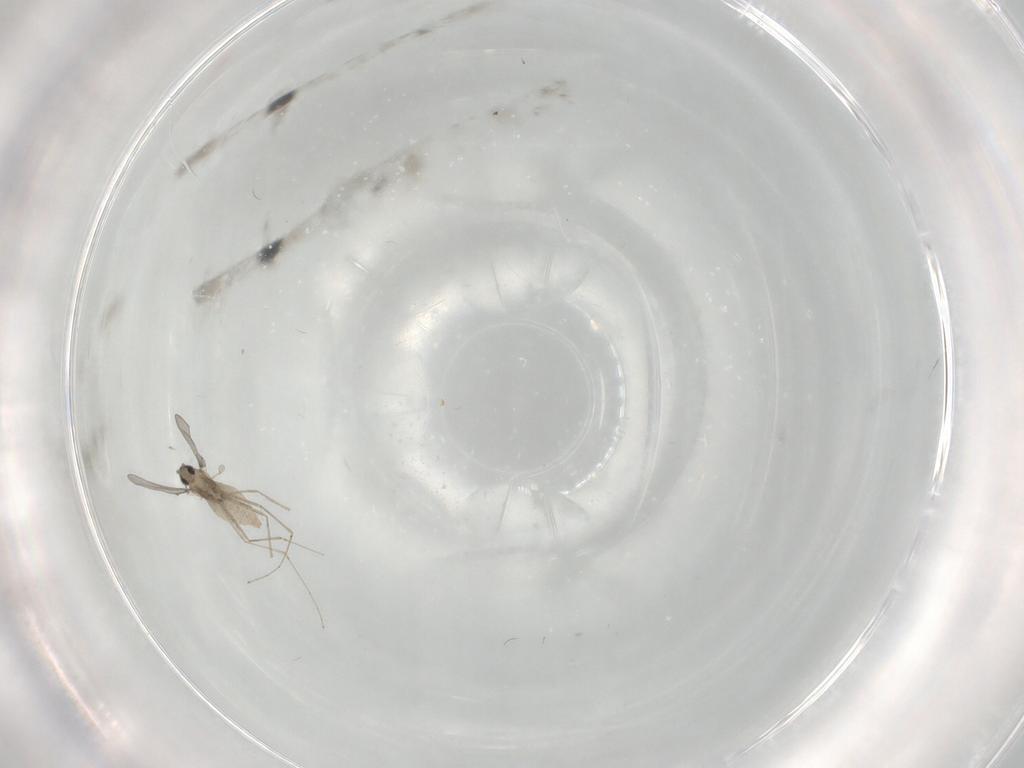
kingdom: Animalia
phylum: Arthropoda
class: Insecta
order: Diptera
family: Cecidomyiidae
